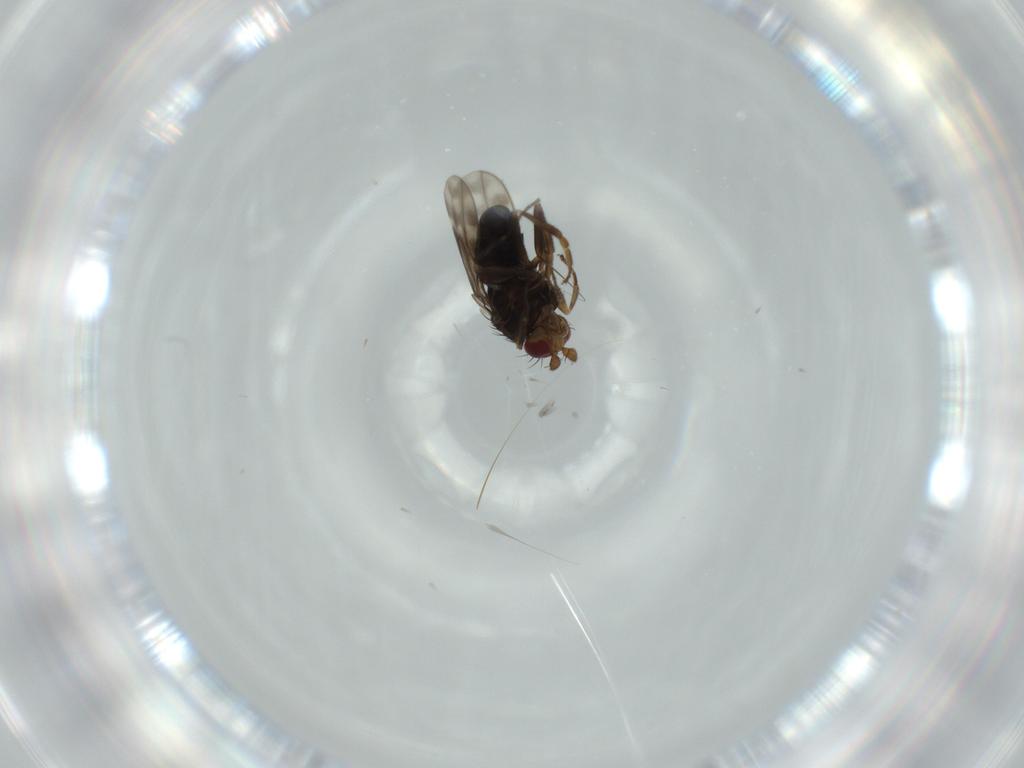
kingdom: Animalia
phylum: Arthropoda
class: Insecta
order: Diptera
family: Sphaeroceridae
